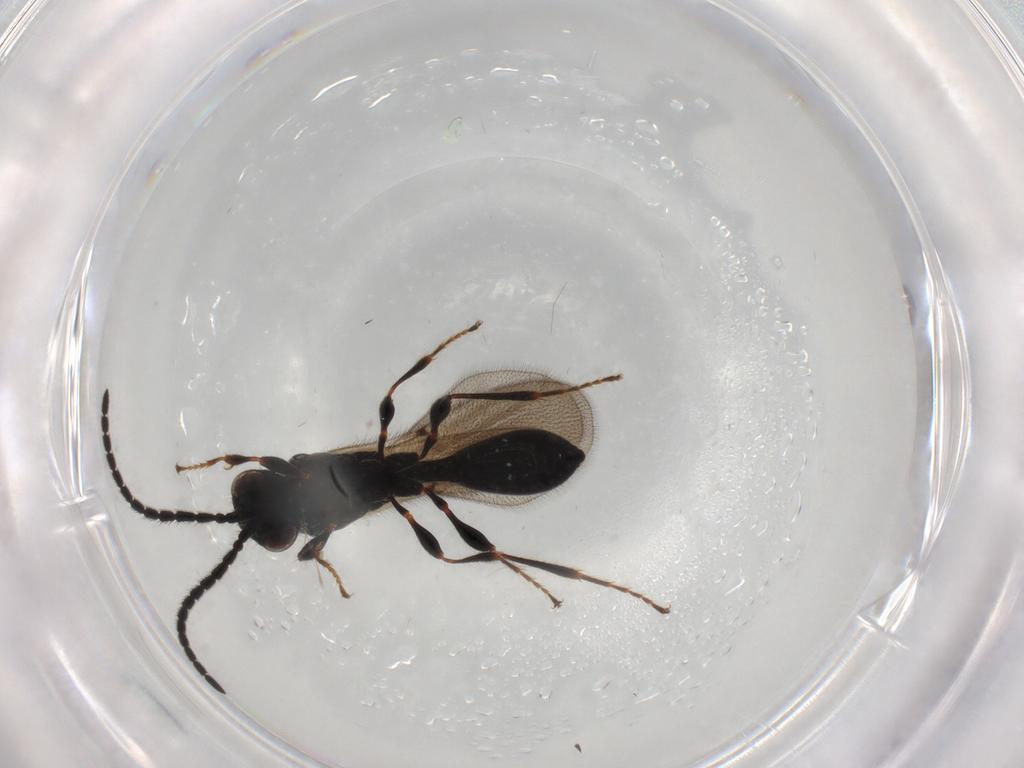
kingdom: Animalia
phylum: Arthropoda
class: Insecta
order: Hymenoptera
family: Diapriidae
